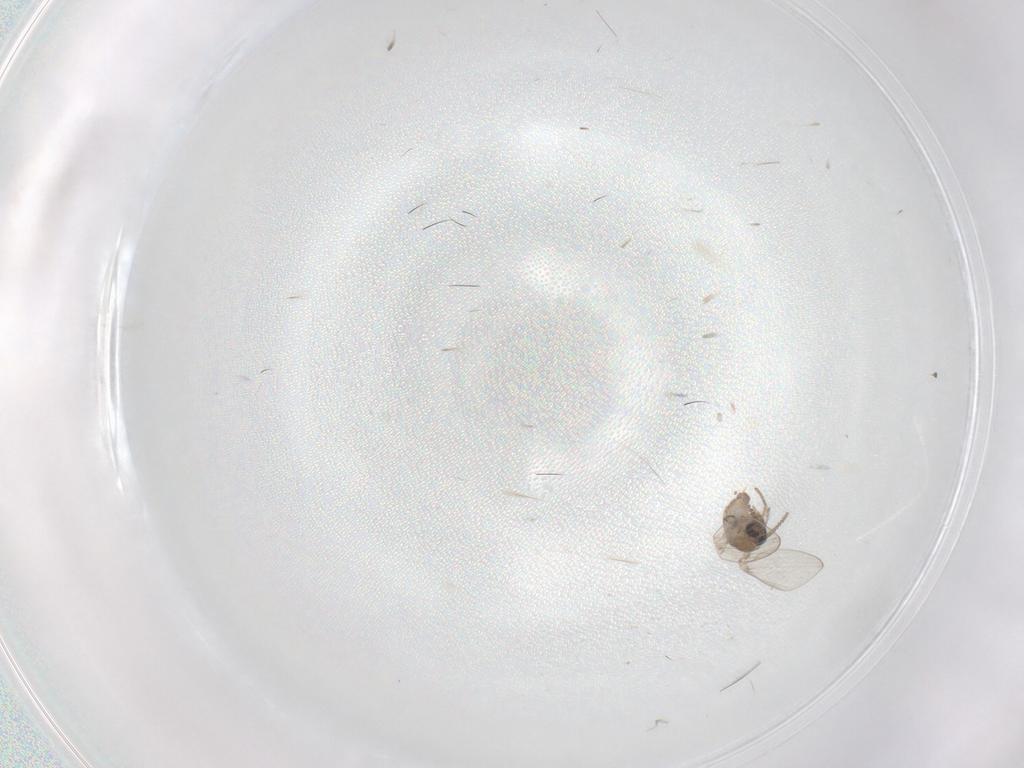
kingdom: Animalia
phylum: Arthropoda
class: Insecta
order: Diptera
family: Psychodidae
